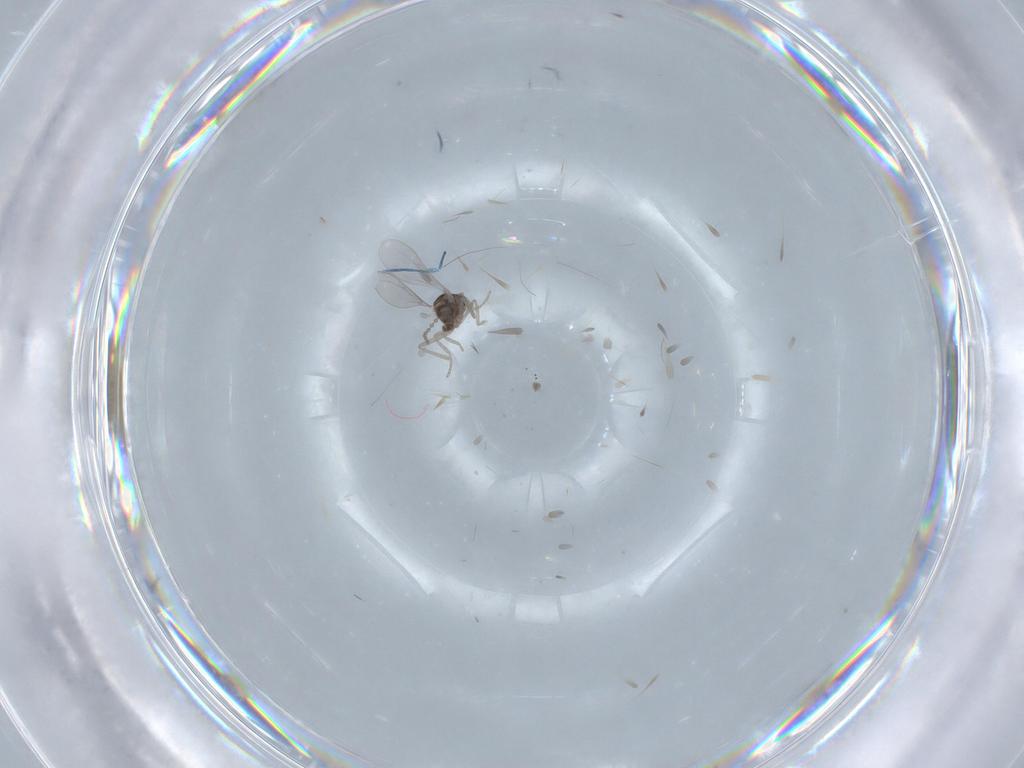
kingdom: Animalia
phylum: Arthropoda
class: Insecta
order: Diptera
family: Cecidomyiidae
